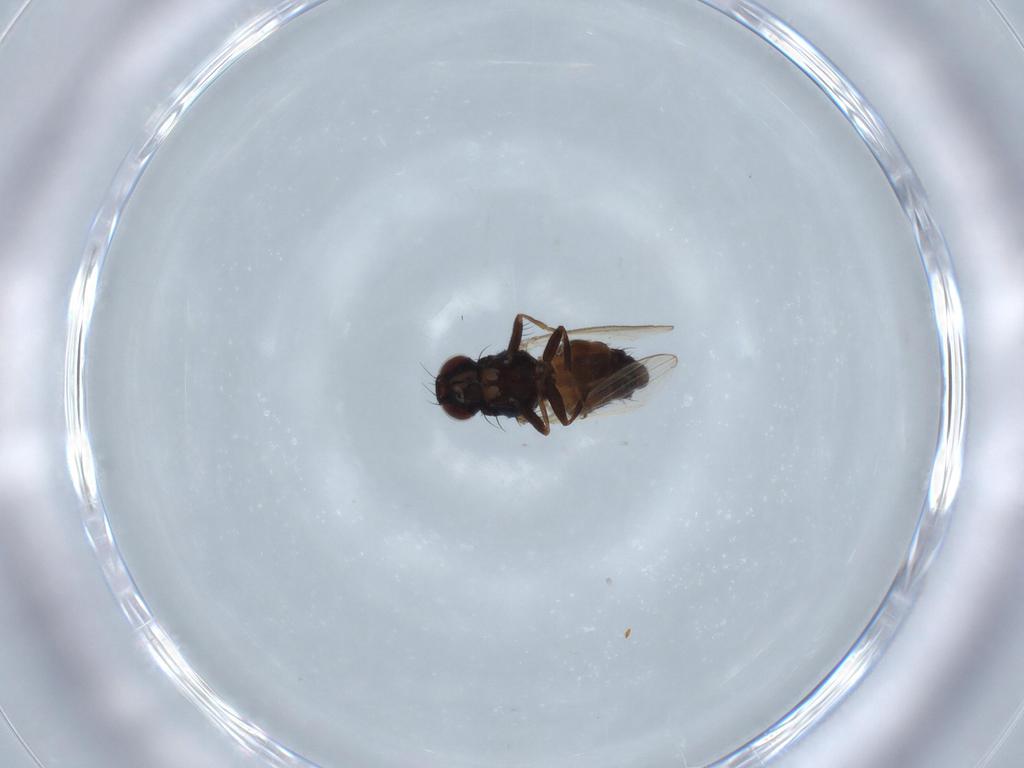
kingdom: Animalia
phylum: Arthropoda
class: Insecta
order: Diptera
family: Carnidae
